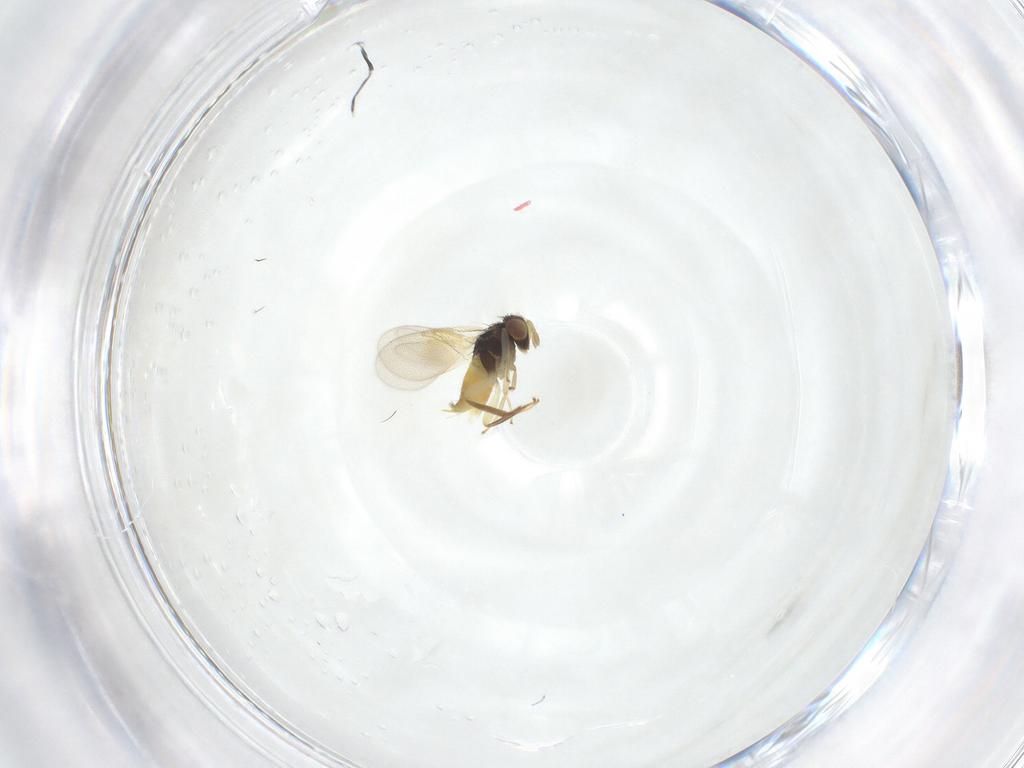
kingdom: Animalia
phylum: Arthropoda
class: Insecta
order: Hymenoptera
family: Aphelinidae
